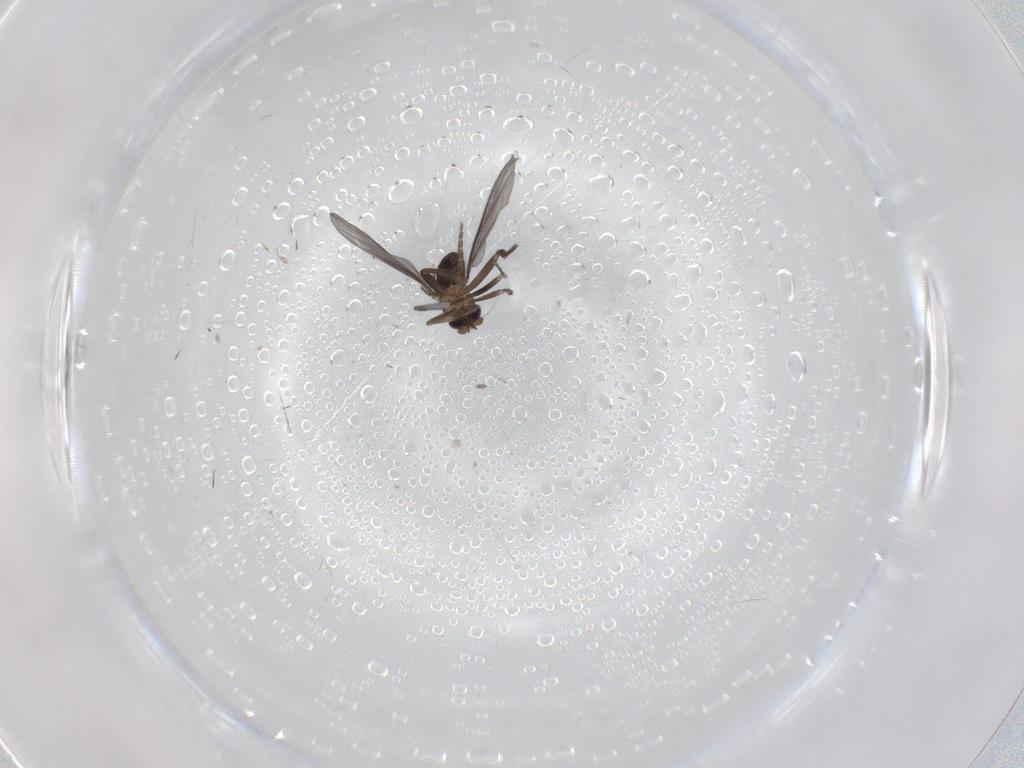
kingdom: Animalia
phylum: Arthropoda
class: Insecta
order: Diptera
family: Phoridae
